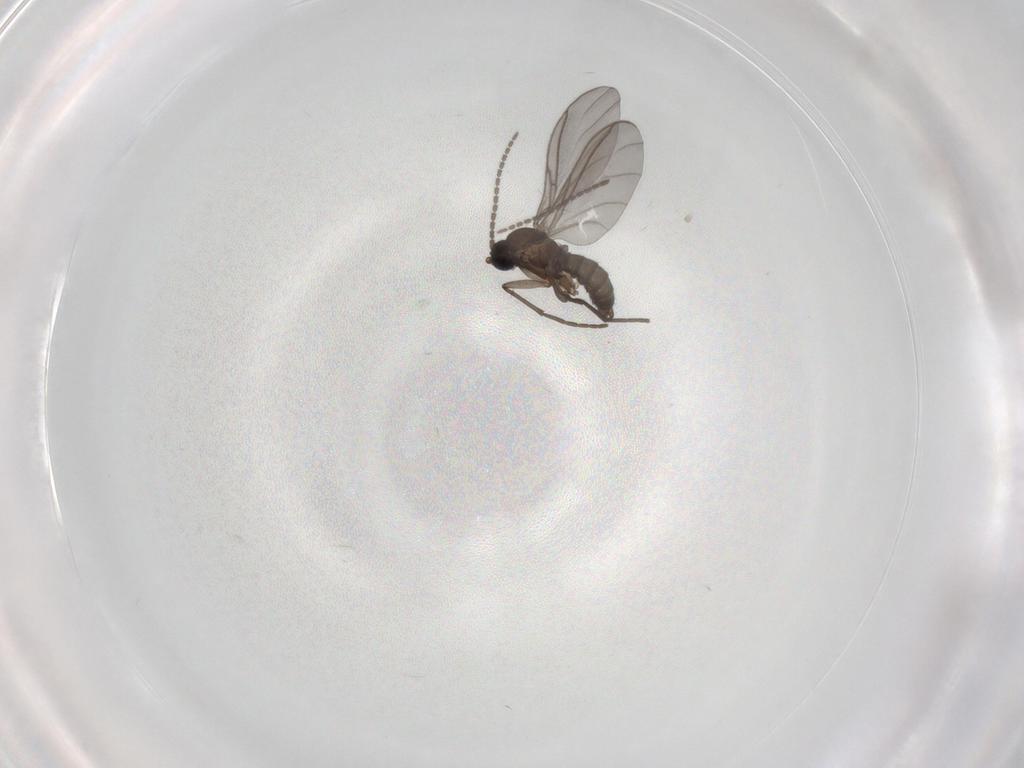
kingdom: Animalia
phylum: Arthropoda
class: Insecta
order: Diptera
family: Sciaridae
